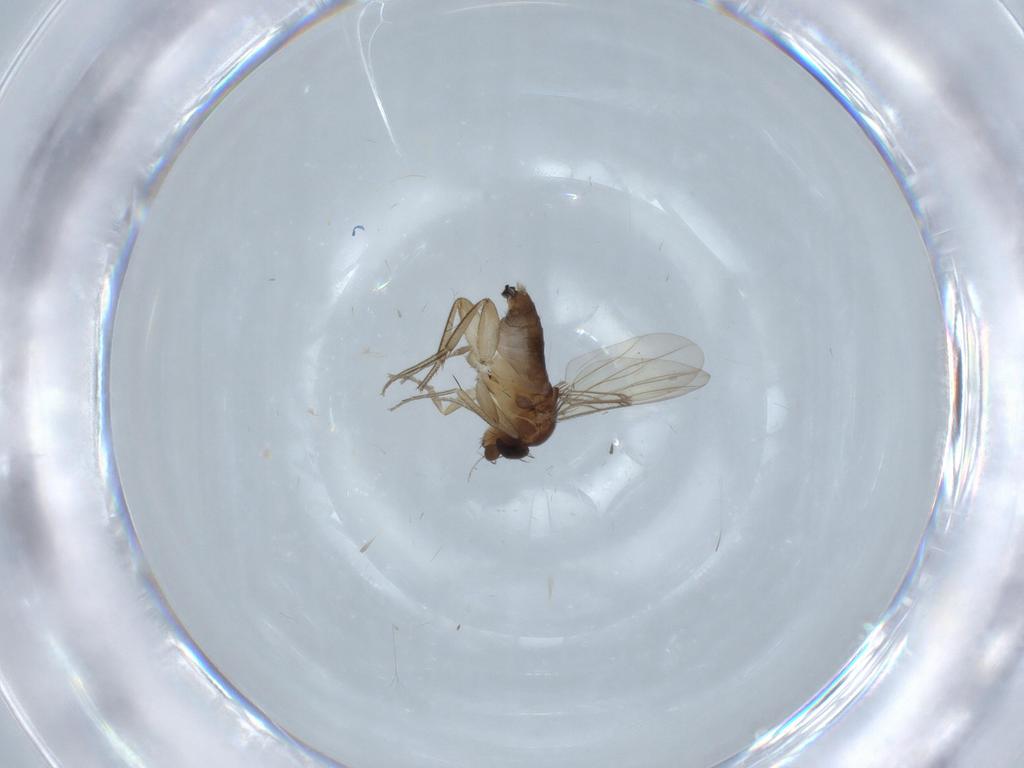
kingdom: Animalia
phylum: Arthropoda
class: Insecta
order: Diptera
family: Phoridae
